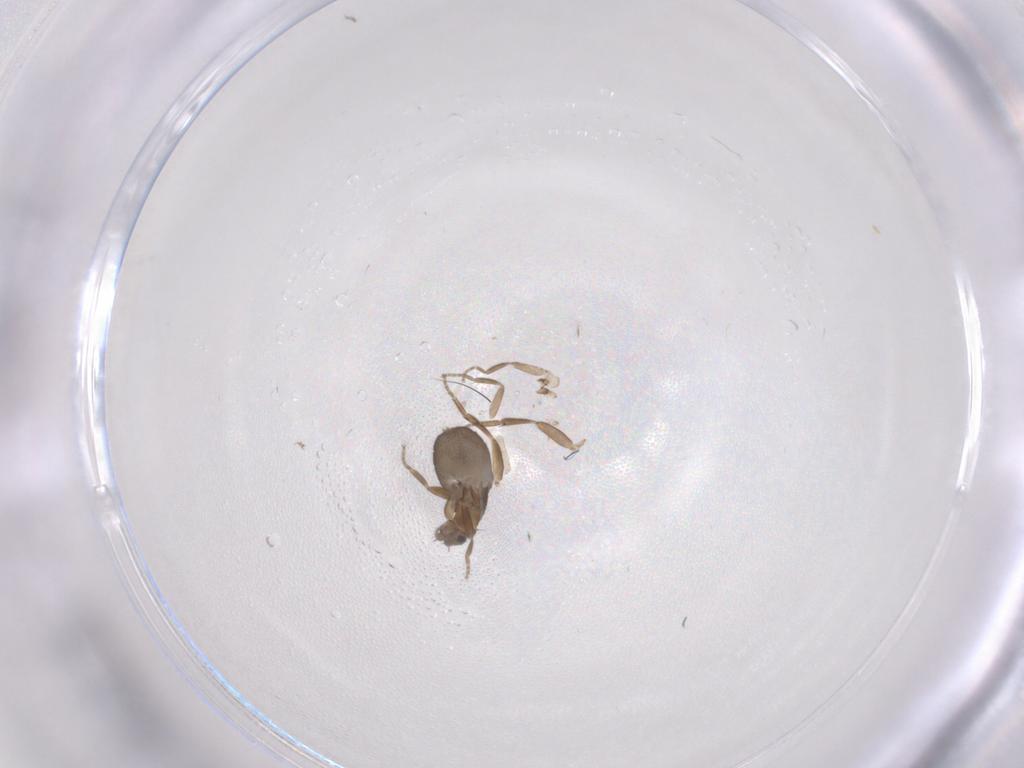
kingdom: Animalia
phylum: Arthropoda
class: Insecta
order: Diptera
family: Phoridae
